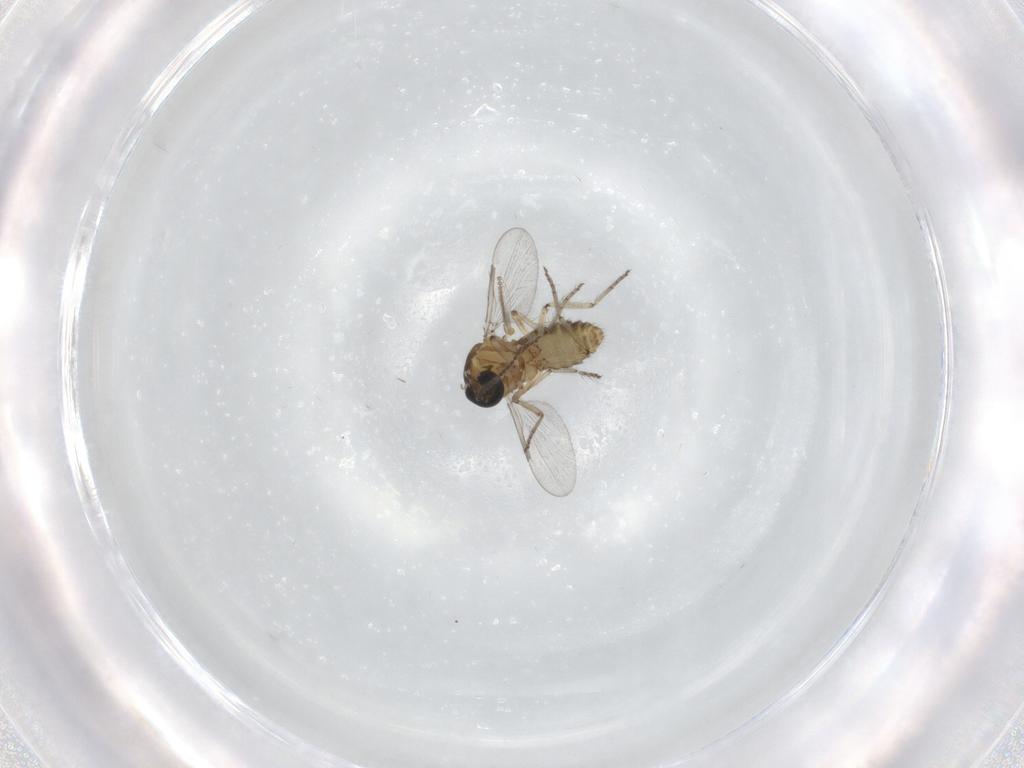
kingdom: Animalia
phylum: Arthropoda
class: Insecta
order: Diptera
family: Ceratopogonidae
